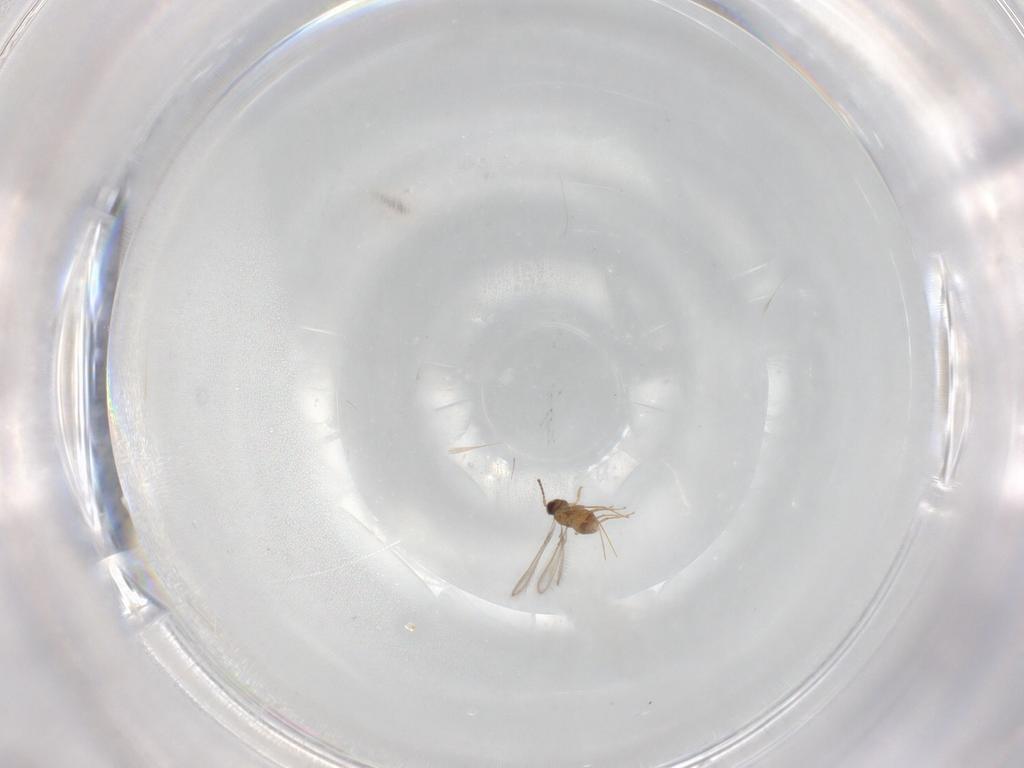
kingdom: Animalia
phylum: Arthropoda
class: Insecta
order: Hymenoptera
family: Mymaridae
